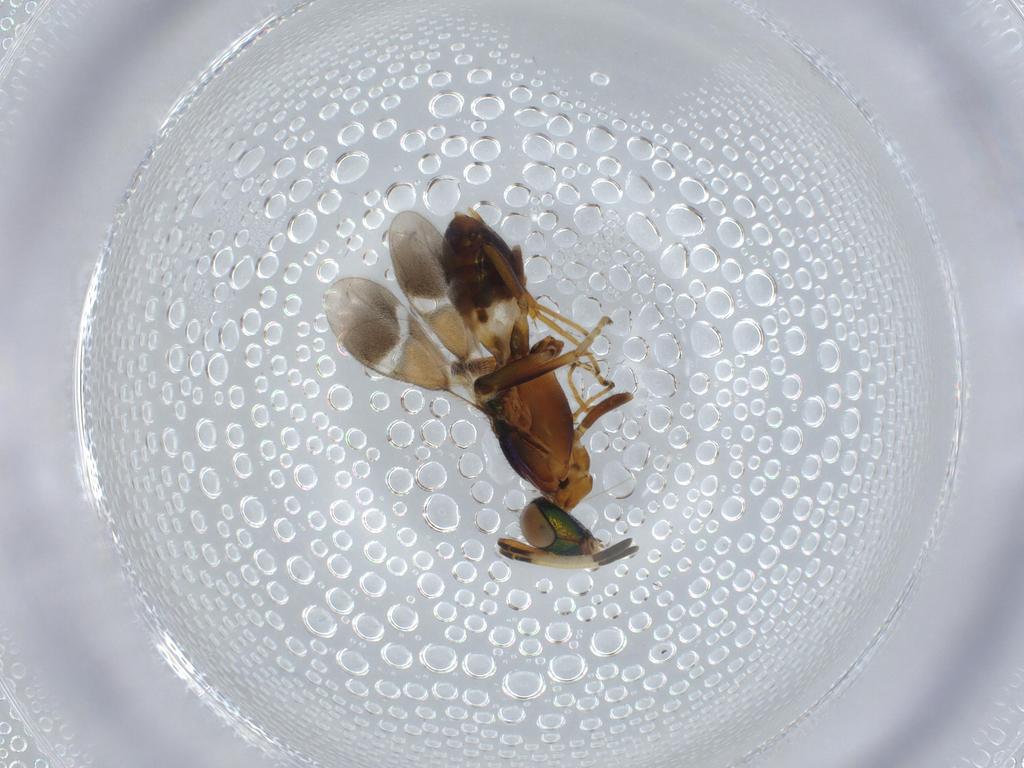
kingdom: Animalia
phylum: Arthropoda
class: Insecta
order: Hymenoptera
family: Eupelmidae
